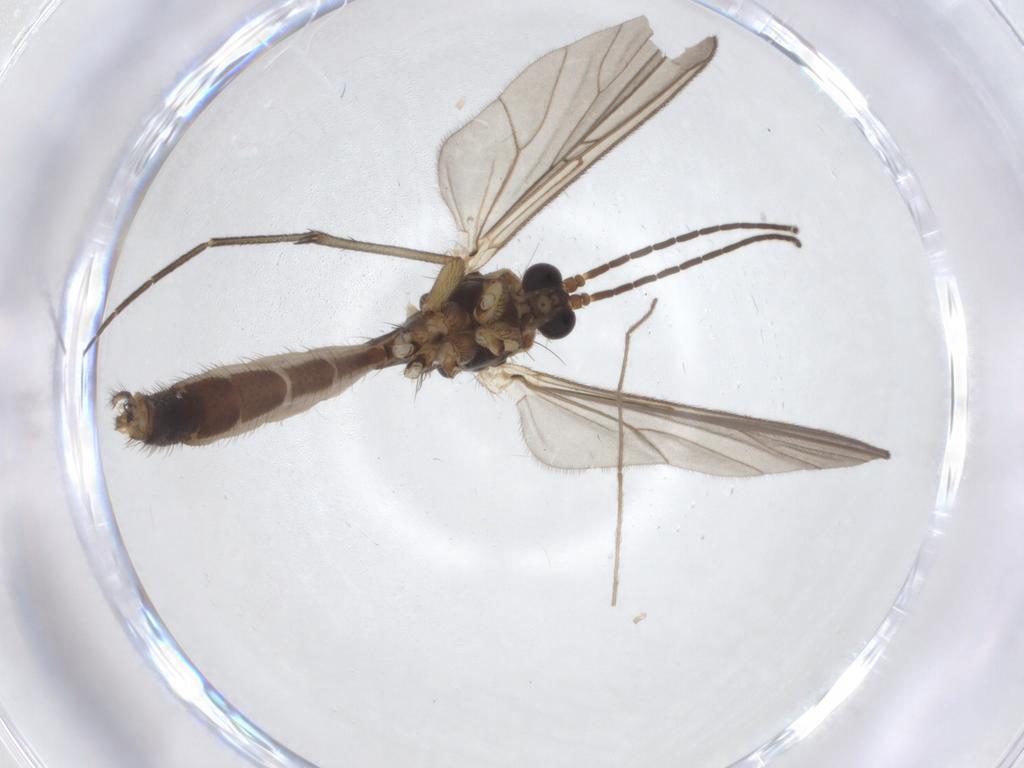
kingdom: Animalia
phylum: Arthropoda
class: Insecta
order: Diptera
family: Mycetophilidae
